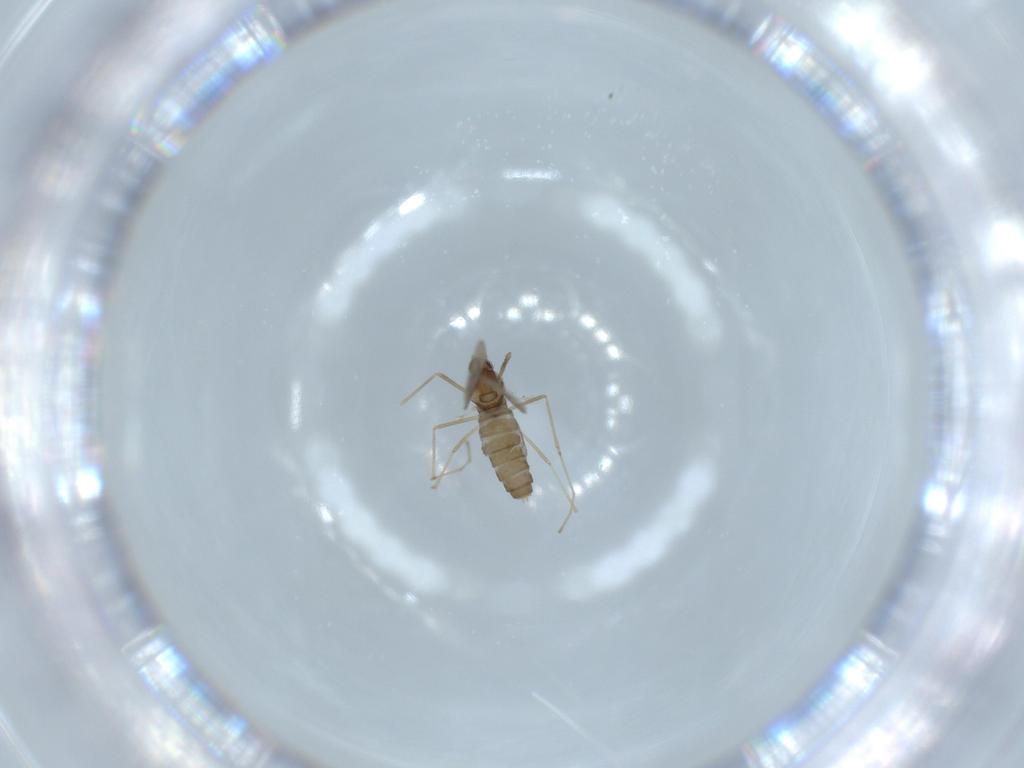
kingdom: Animalia
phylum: Arthropoda
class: Insecta
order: Diptera
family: Cecidomyiidae
